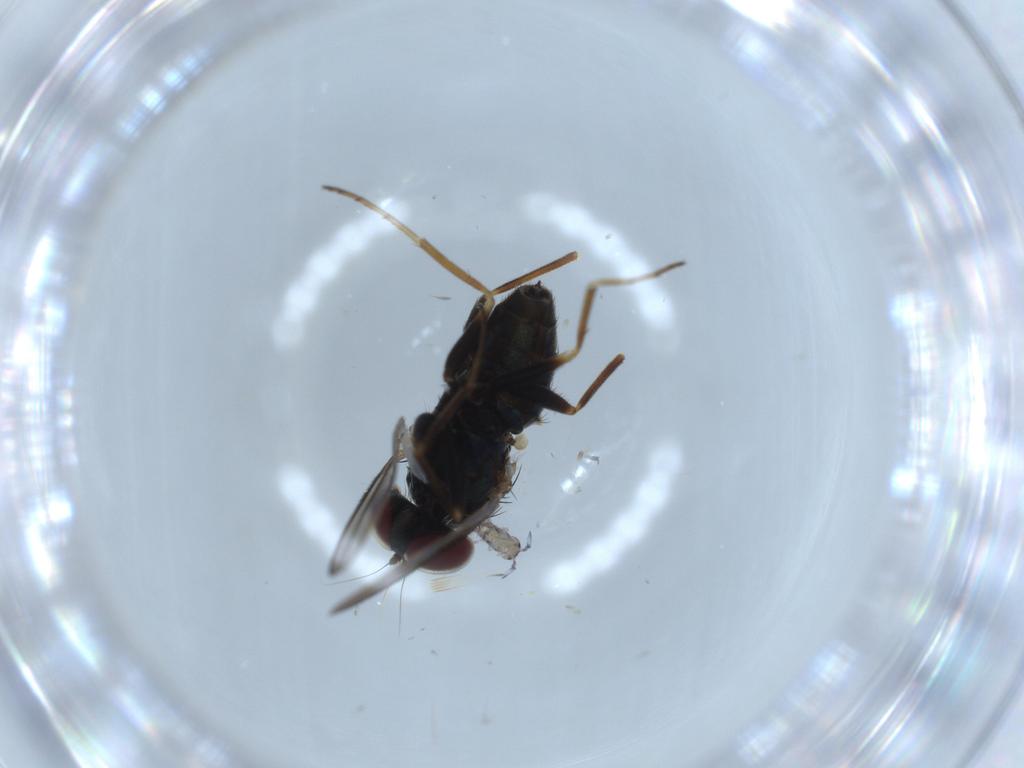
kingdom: Animalia
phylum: Arthropoda
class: Insecta
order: Diptera
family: Dolichopodidae
